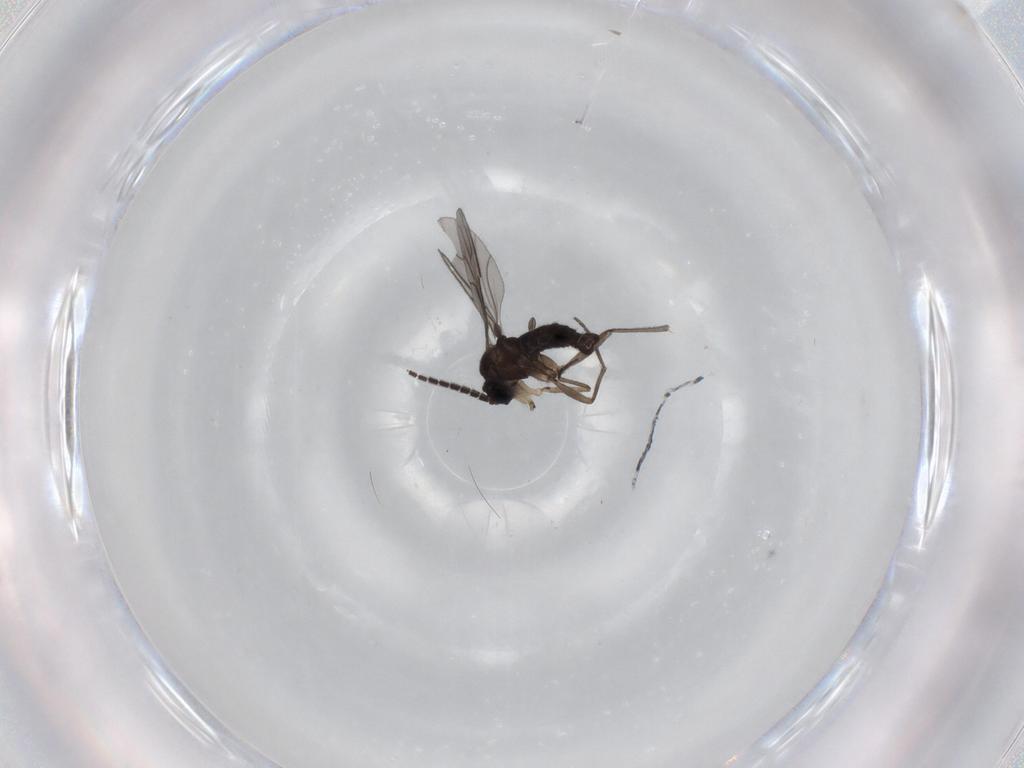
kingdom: Animalia
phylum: Arthropoda
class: Insecta
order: Diptera
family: Sciaridae
